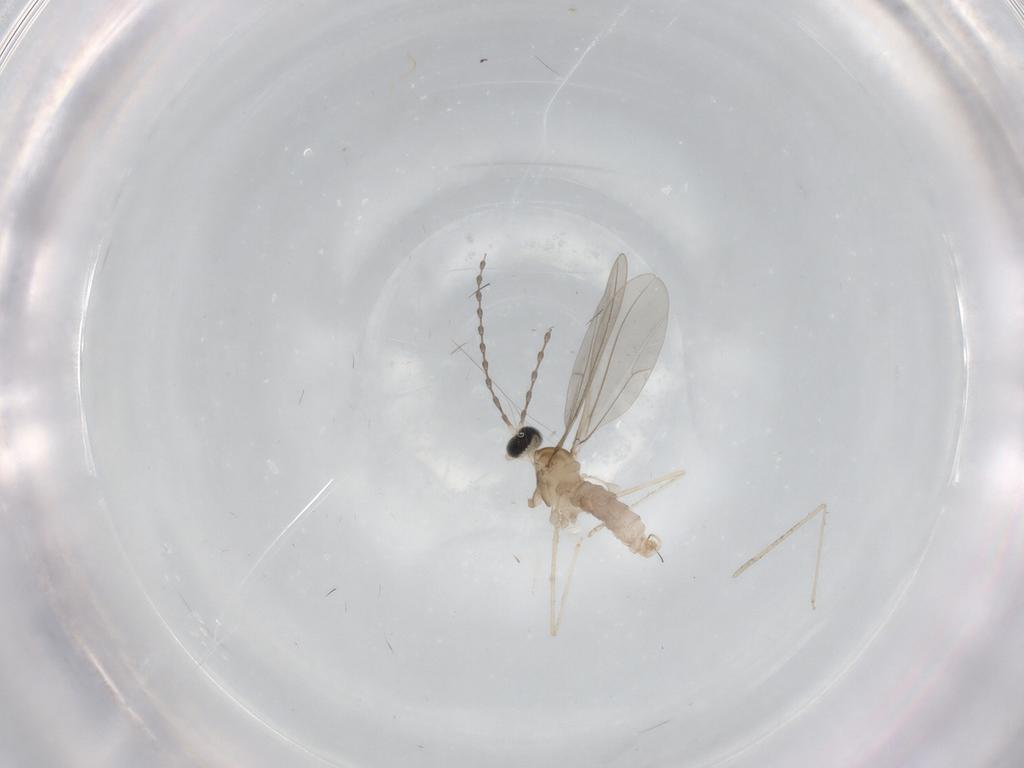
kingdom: Animalia
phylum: Arthropoda
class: Insecta
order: Diptera
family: Cecidomyiidae
